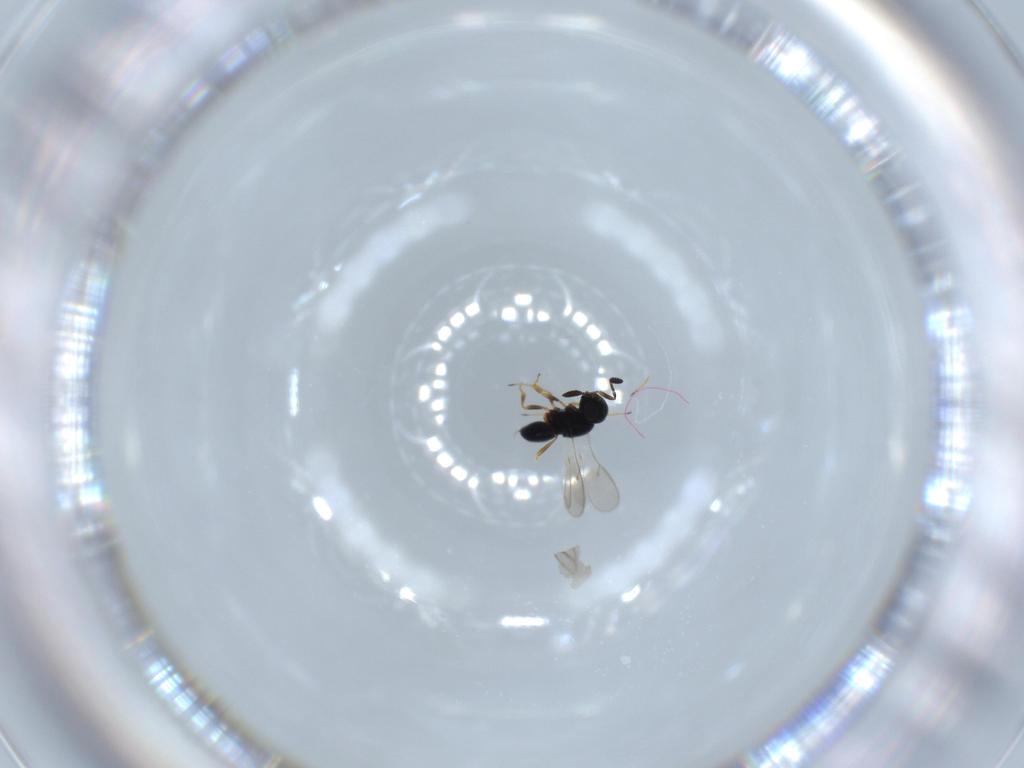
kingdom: Animalia
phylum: Arthropoda
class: Insecta
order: Hymenoptera
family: Scelionidae
